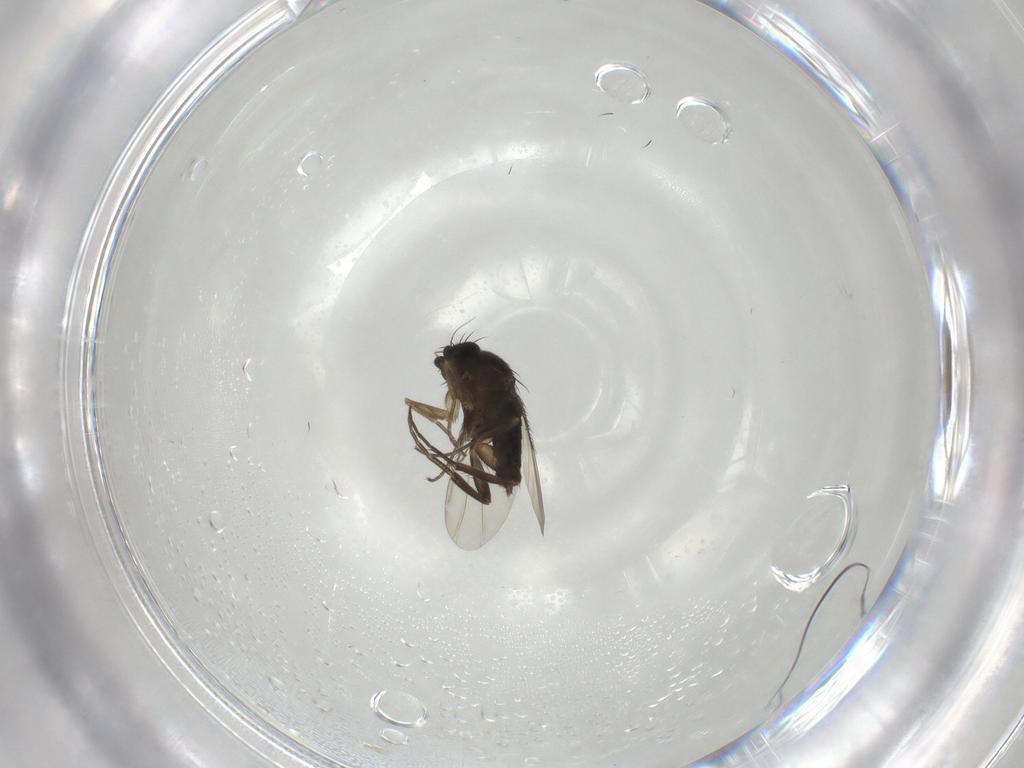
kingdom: Animalia
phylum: Arthropoda
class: Insecta
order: Diptera
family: Phoridae
